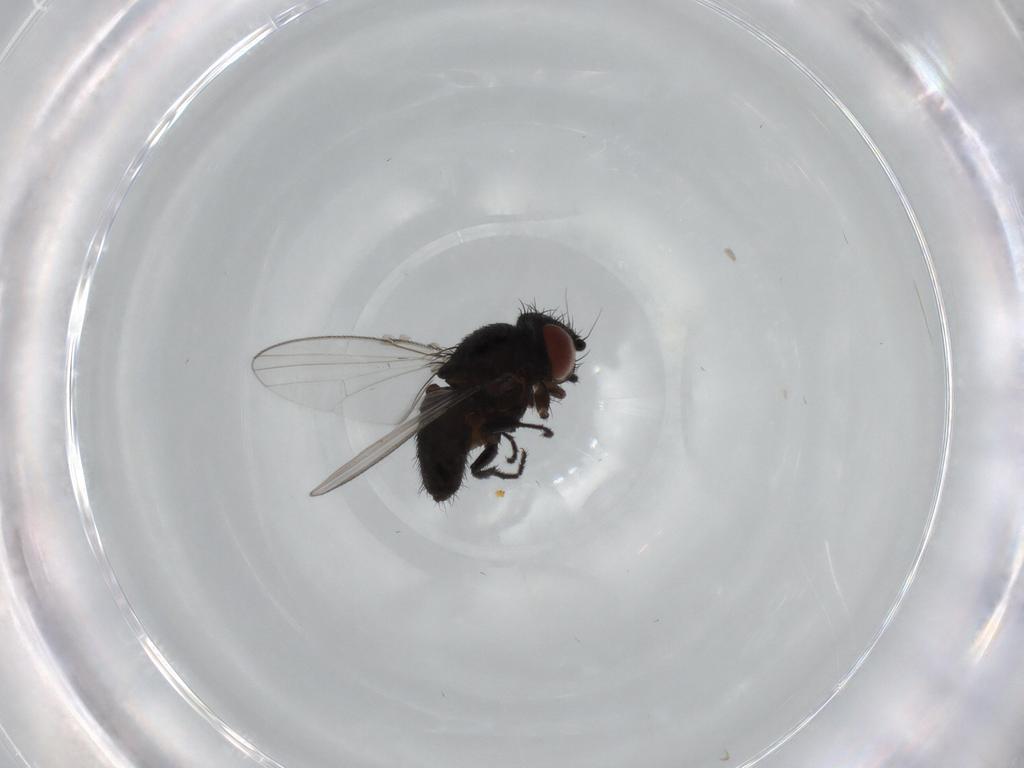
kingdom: Animalia
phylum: Arthropoda
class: Insecta
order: Diptera
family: Milichiidae
